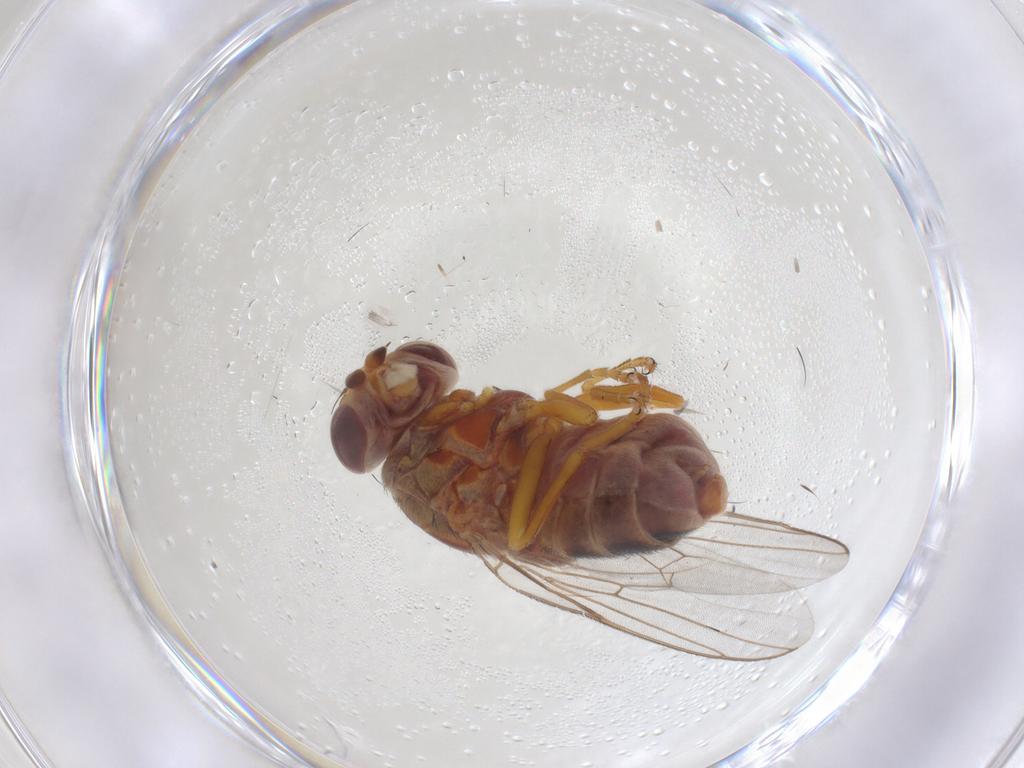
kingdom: Animalia
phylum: Arthropoda
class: Insecta
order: Diptera
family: Chloropidae
